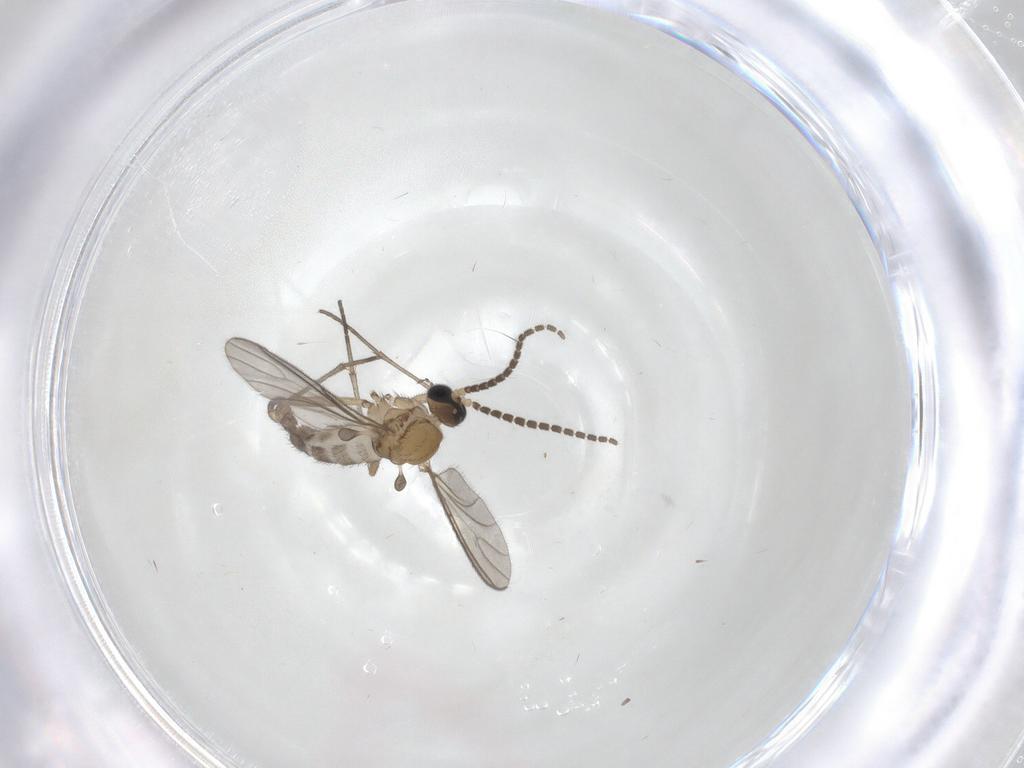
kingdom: Animalia
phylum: Arthropoda
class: Insecta
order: Diptera
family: Sciaridae
